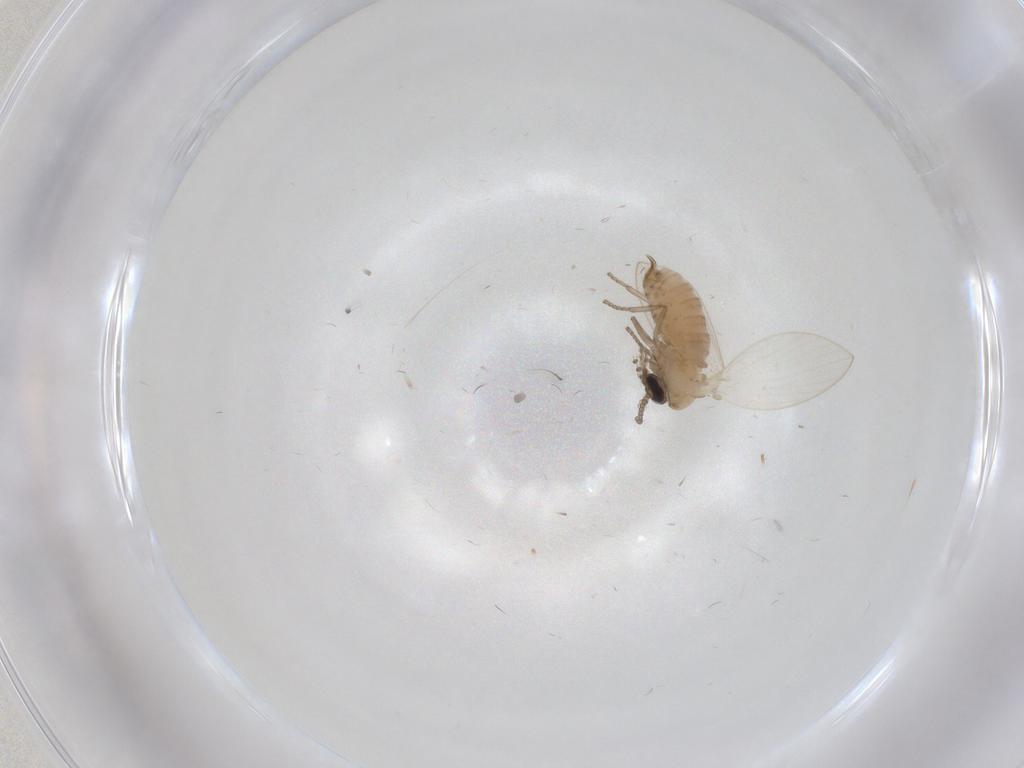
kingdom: Animalia
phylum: Arthropoda
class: Insecta
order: Diptera
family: Psychodidae
